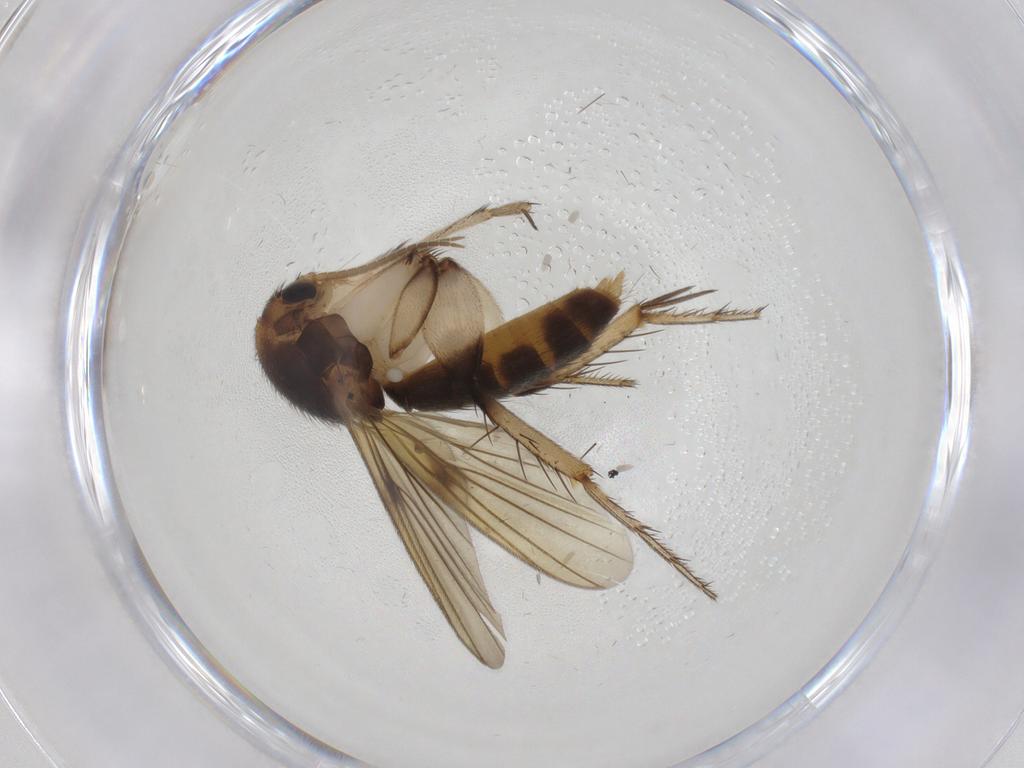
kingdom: Animalia
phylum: Arthropoda
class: Insecta
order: Diptera
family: Mycetophilidae
